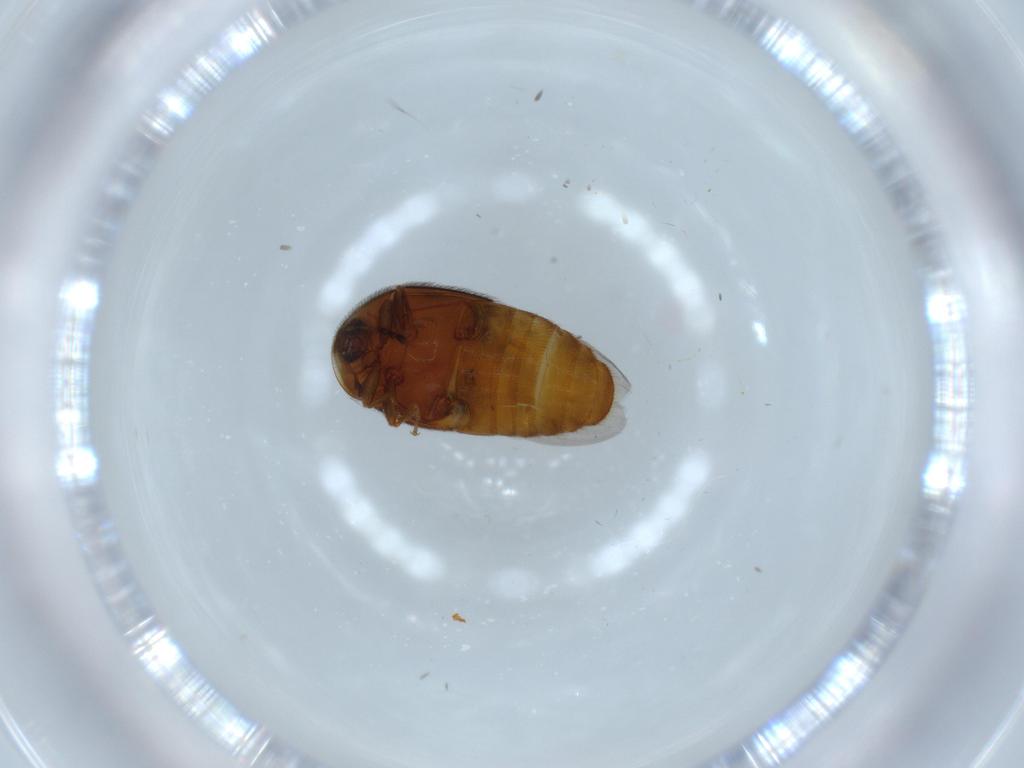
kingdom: Animalia
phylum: Arthropoda
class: Insecta
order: Coleoptera
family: Corylophidae
